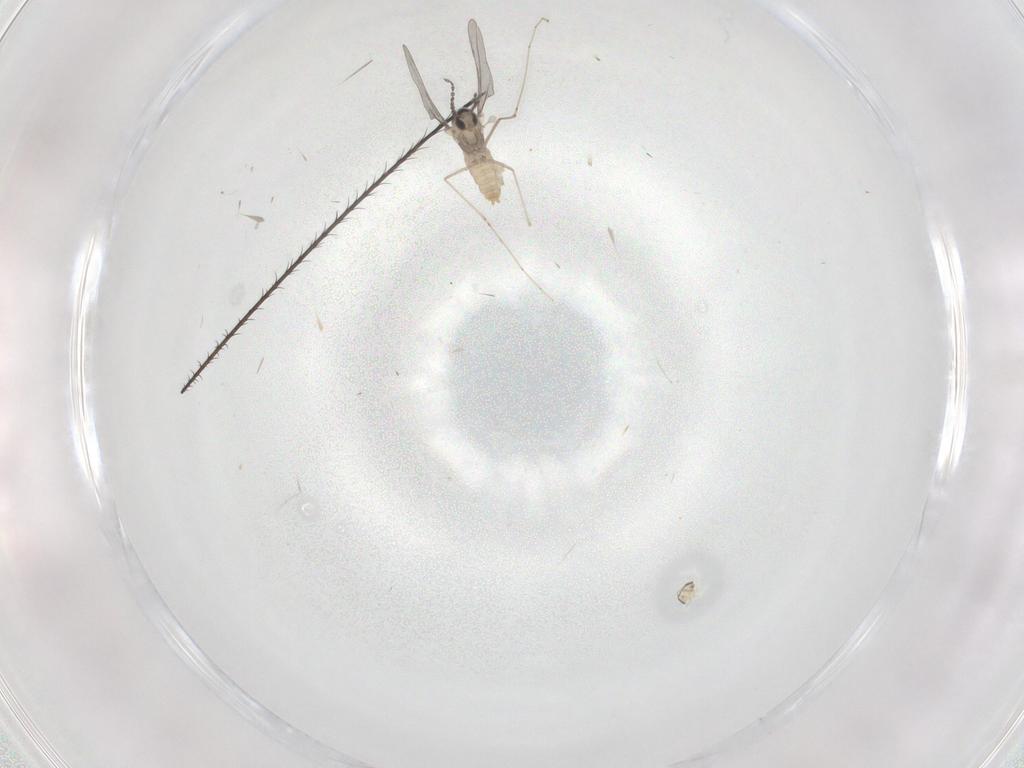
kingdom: Animalia
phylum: Arthropoda
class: Insecta
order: Diptera
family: Cecidomyiidae
